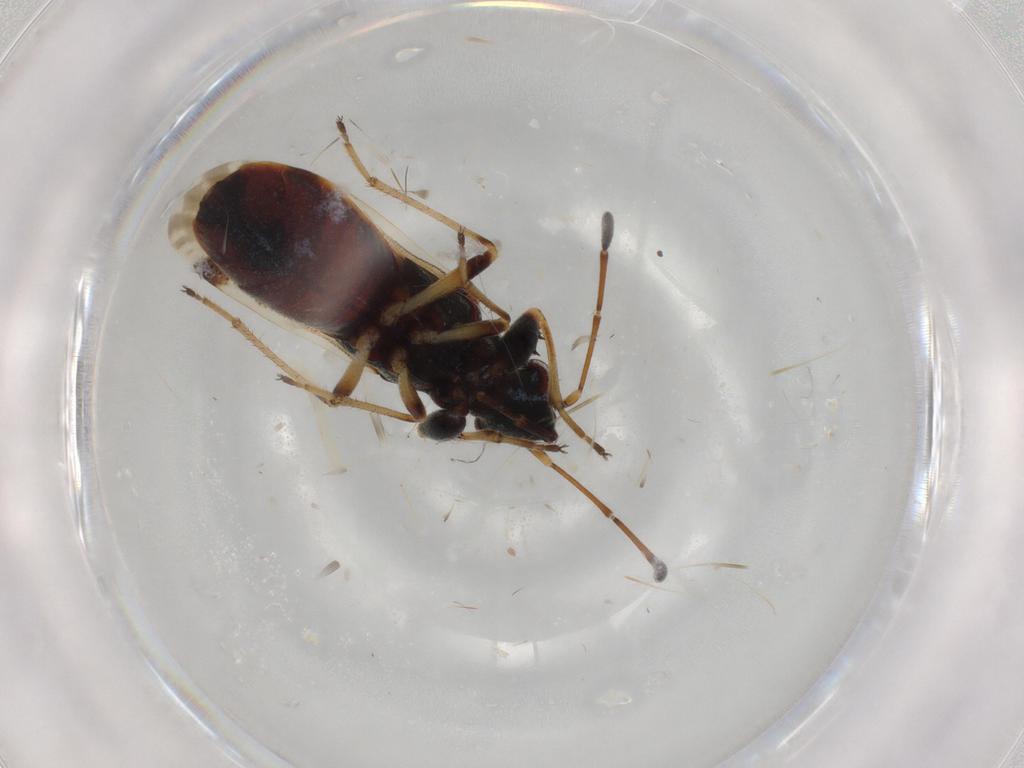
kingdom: Animalia
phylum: Arthropoda
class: Insecta
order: Hemiptera
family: Rhyparochromidae
